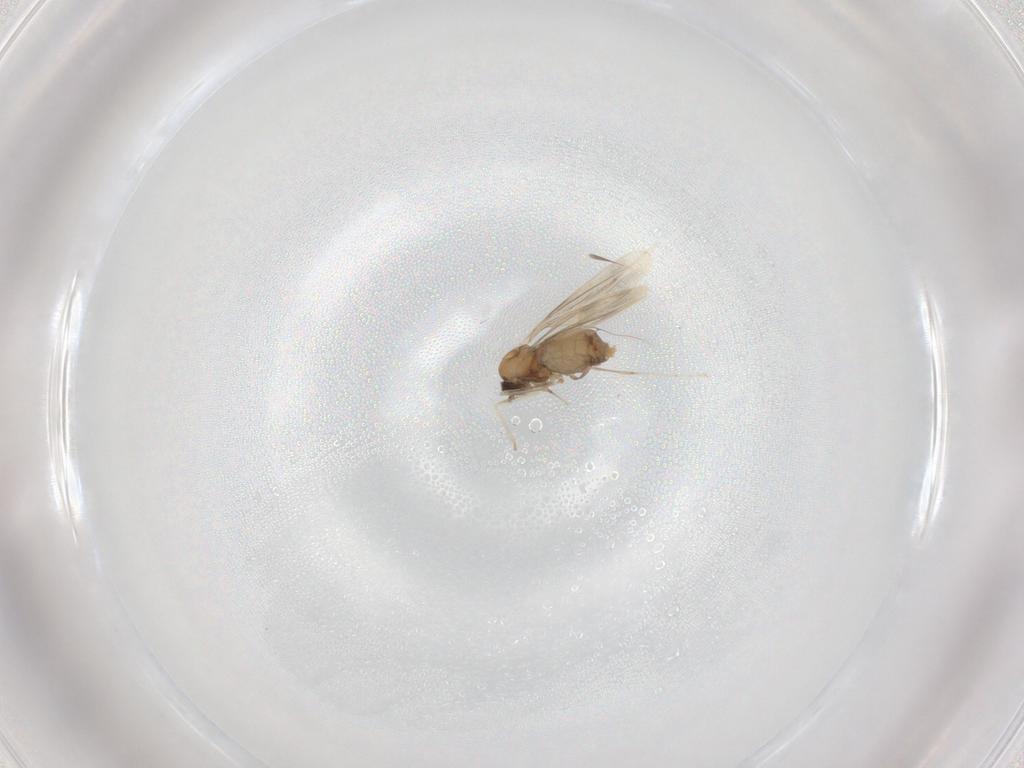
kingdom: Animalia
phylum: Arthropoda
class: Insecta
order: Diptera
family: Cecidomyiidae
